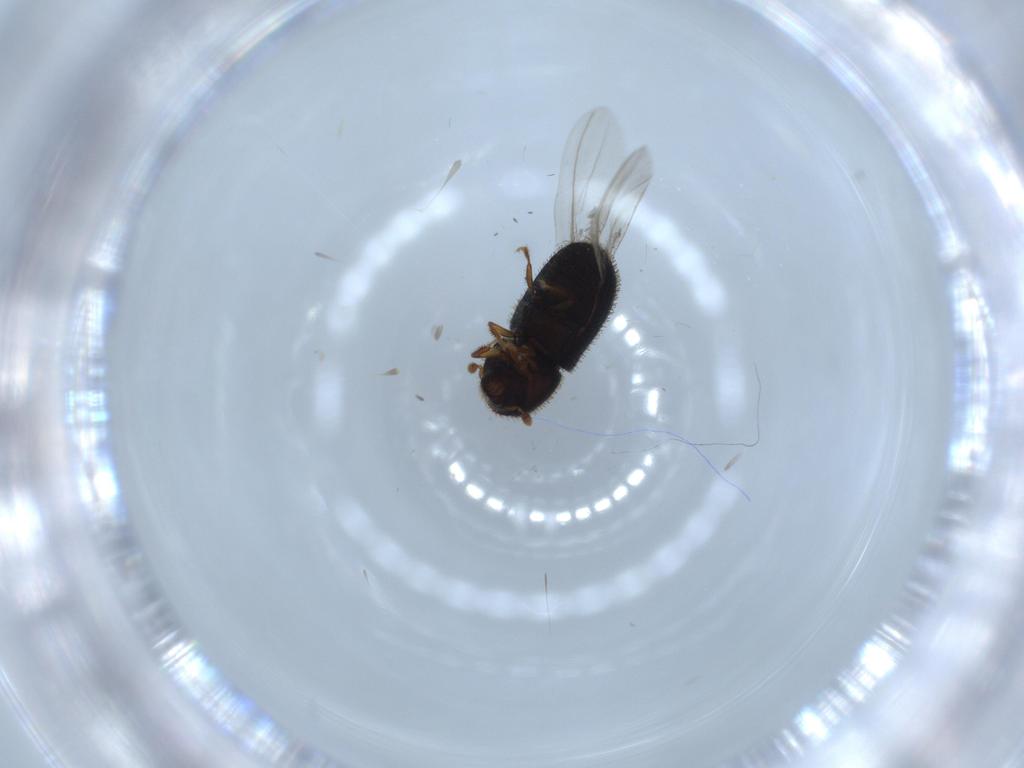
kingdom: Animalia
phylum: Arthropoda
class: Insecta
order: Coleoptera
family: Curculionidae
